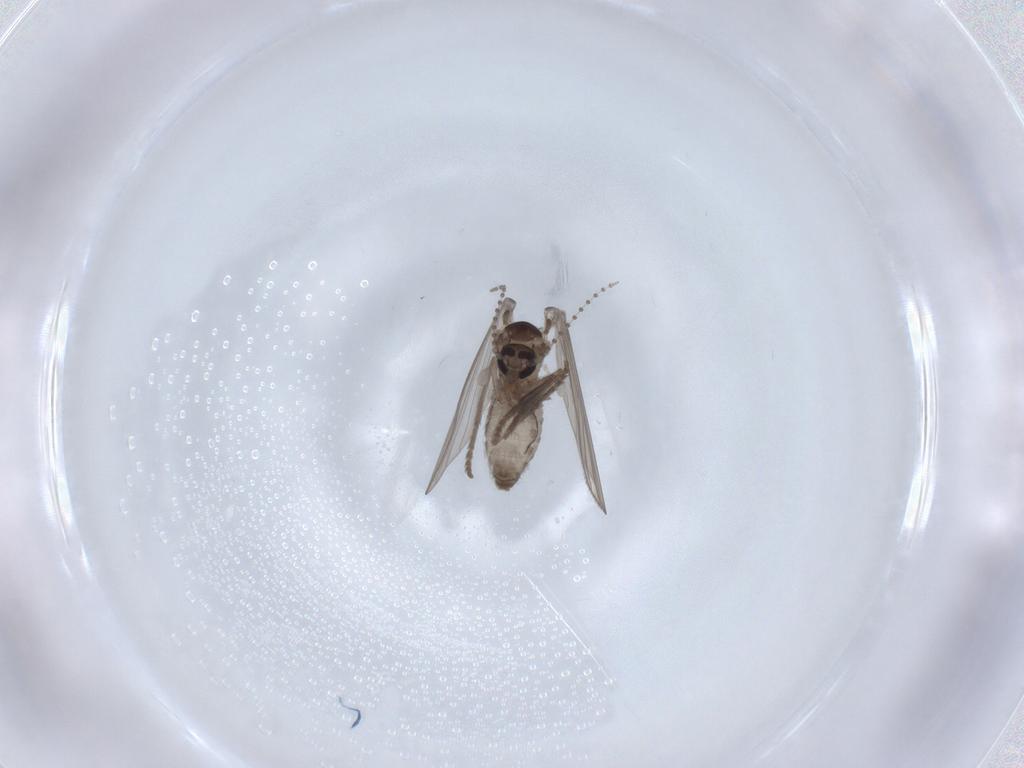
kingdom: Animalia
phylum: Arthropoda
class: Insecta
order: Diptera
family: Psychodidae
